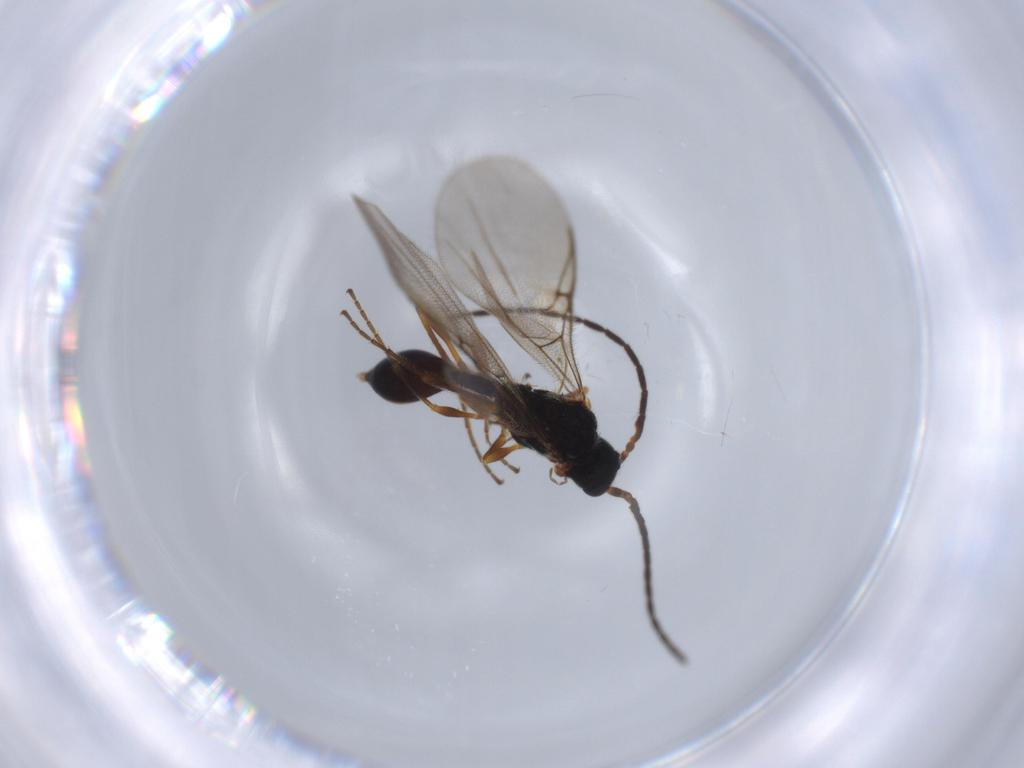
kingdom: Animalia
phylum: Arthropoda
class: Insecta
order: Hymenoptera
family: Diapriidae
